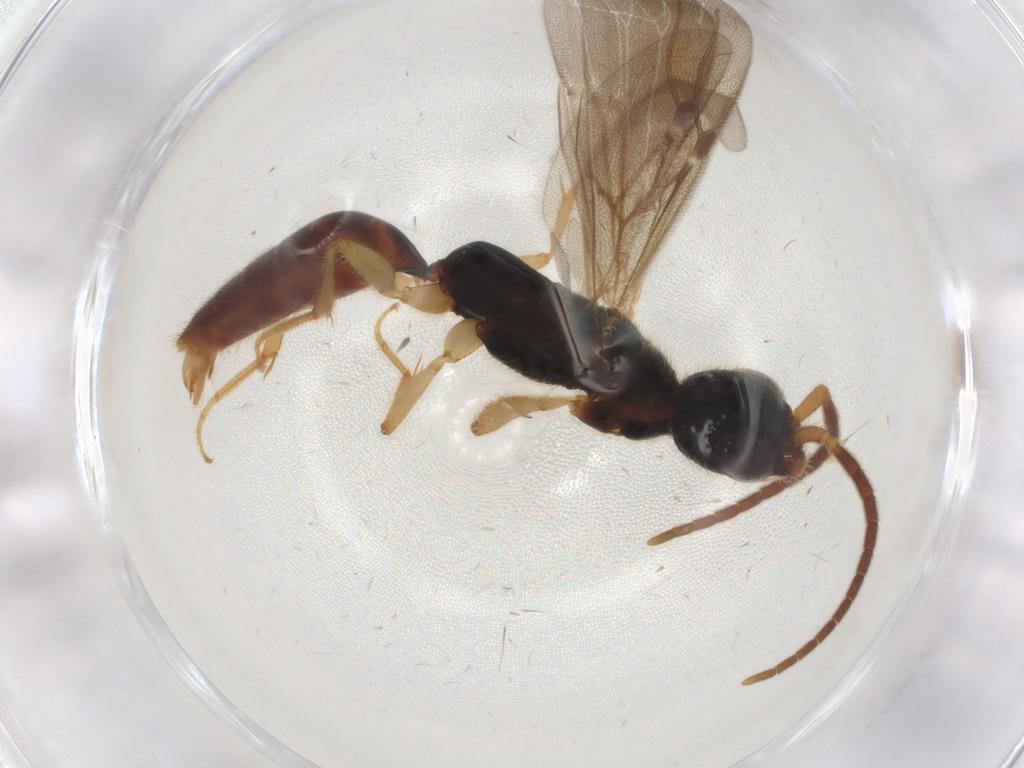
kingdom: Animalia
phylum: Arthropoda
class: Insecta
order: Hymenoptera
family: Bethylidae
